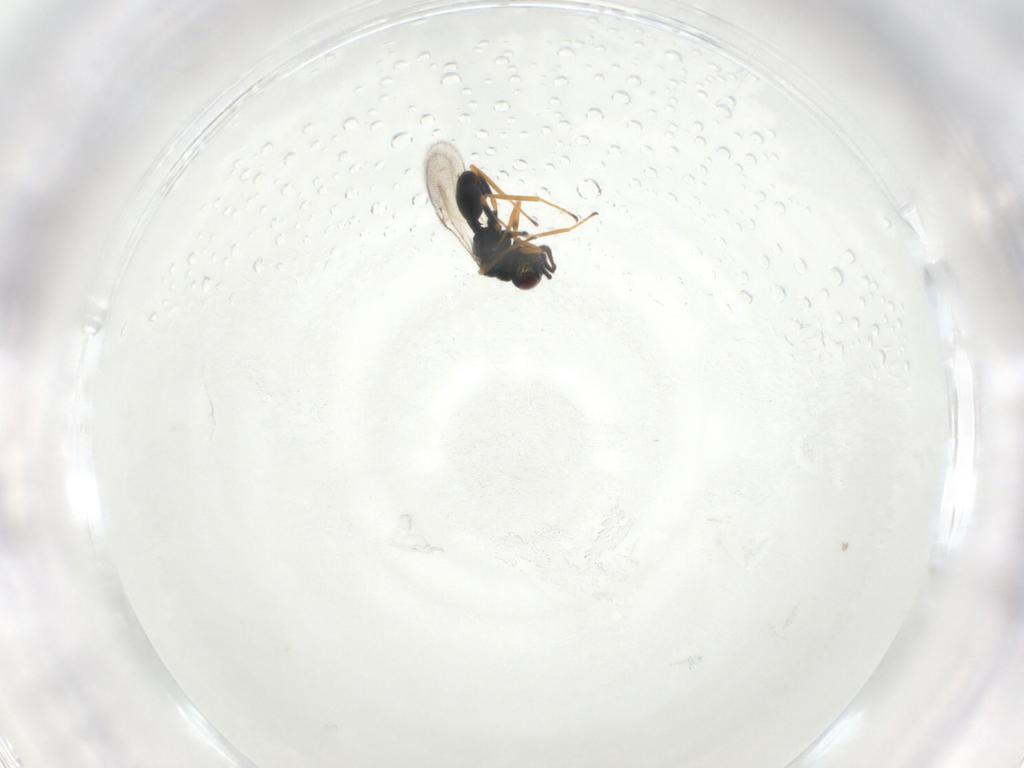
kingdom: Animalia
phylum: Arthropoda
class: Insecta
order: Hymenoptera
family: Chalcidoidea_incertae_sedis
